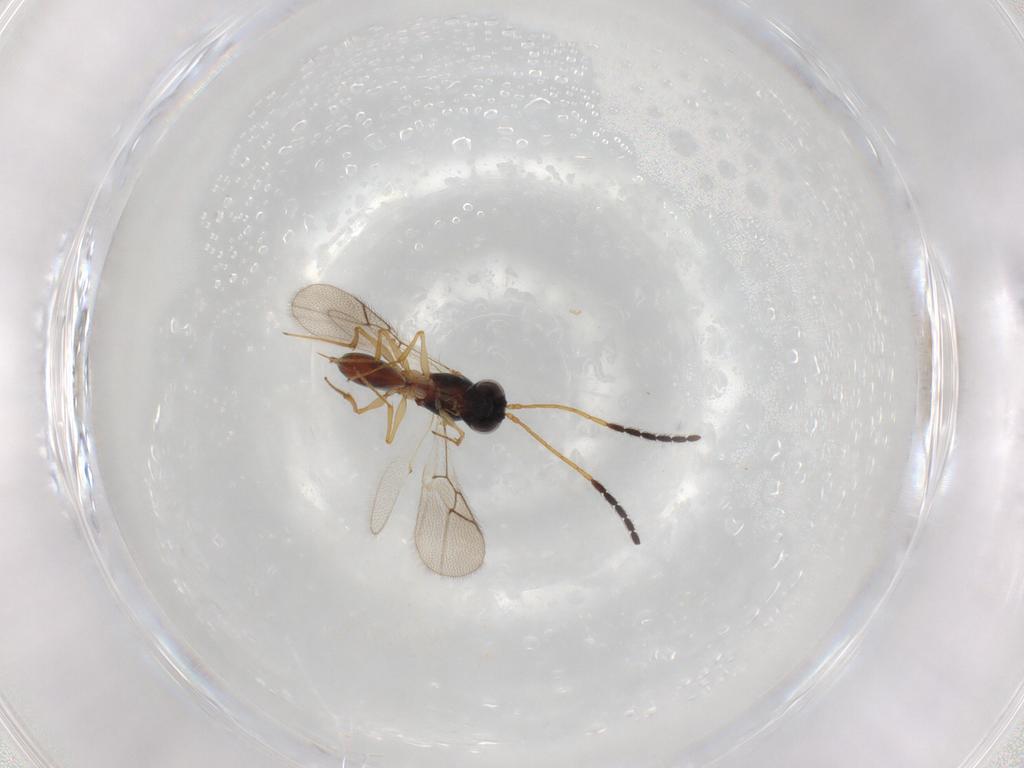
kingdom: Animalia
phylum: Arthropoda
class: Insecta
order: Hymenoptera
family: Figitidae
